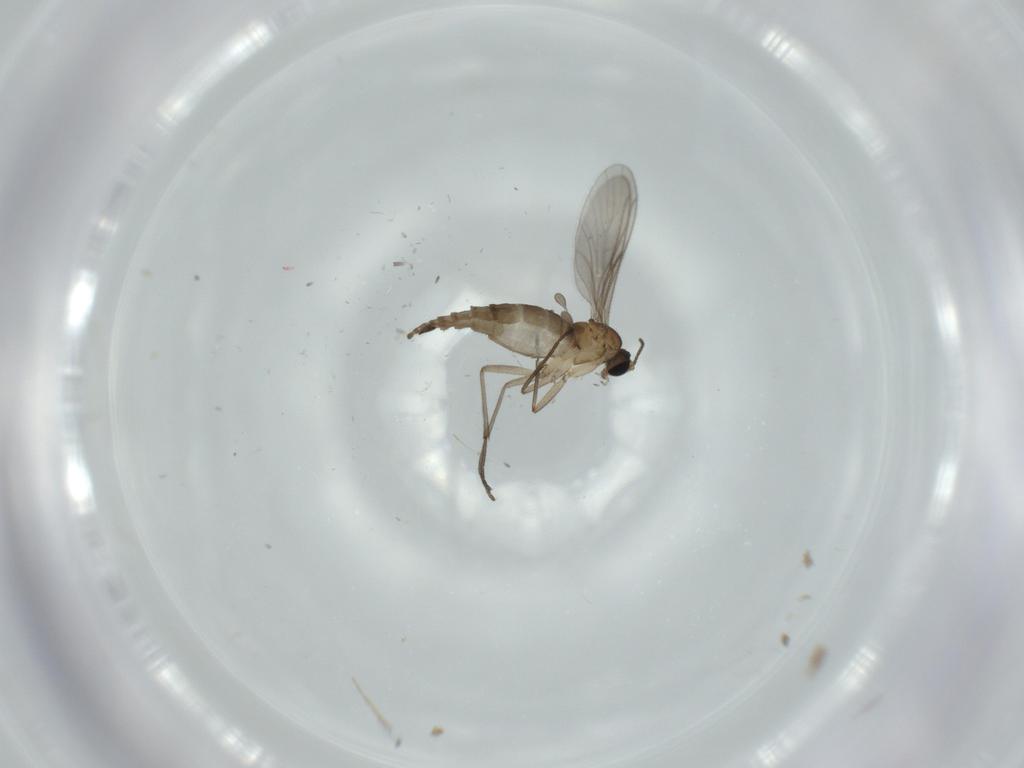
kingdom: Animalia
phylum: Arthropoda
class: Insecta
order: Diptera
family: Sciaridae
